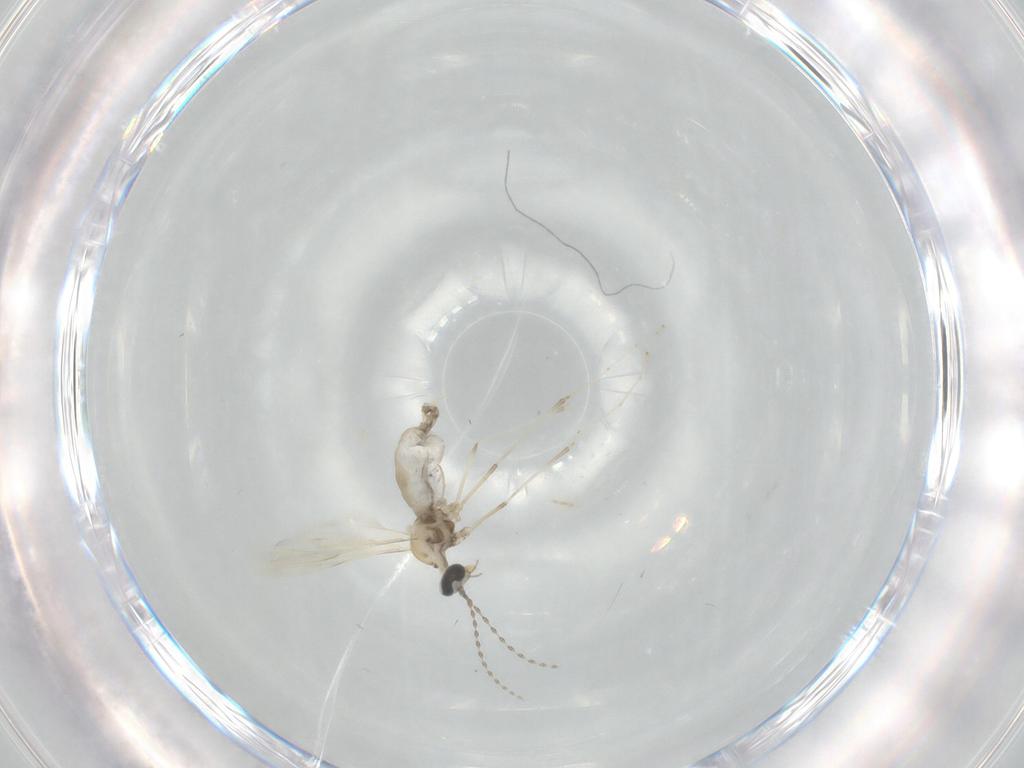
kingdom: Animalia
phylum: Arthropoda
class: Insecta
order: Diptera
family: Cecidomyiidae
